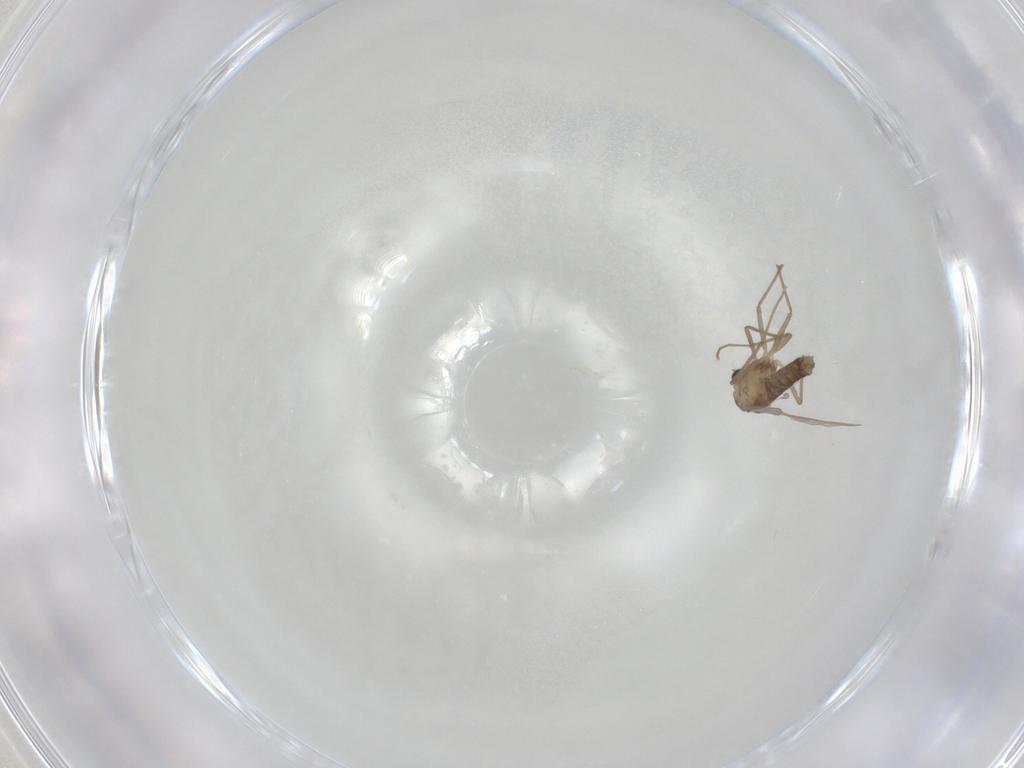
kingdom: Animalia
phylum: Arthropoda
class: Insecta
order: Diptera
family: Chironomidae
